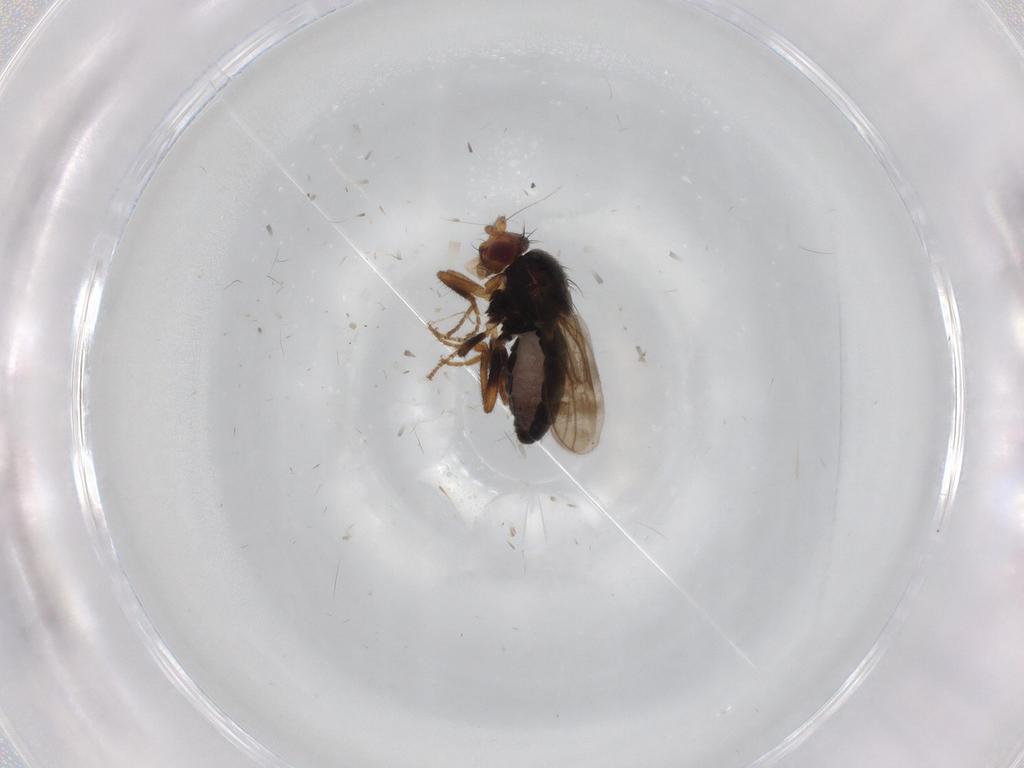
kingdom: Animalia
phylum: Arthropoda
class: Insecta
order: Diptera
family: Sphaeroceridae
